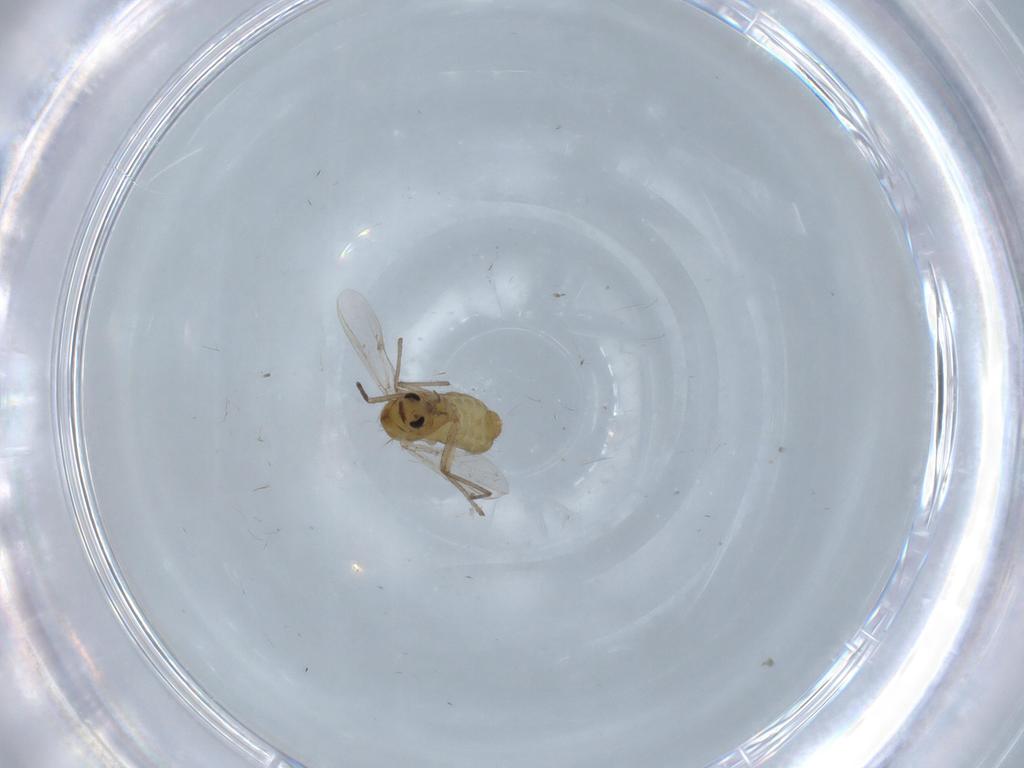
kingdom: Animalia
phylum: Arthropoda
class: Insecta
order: Diptera
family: Chironomidae
